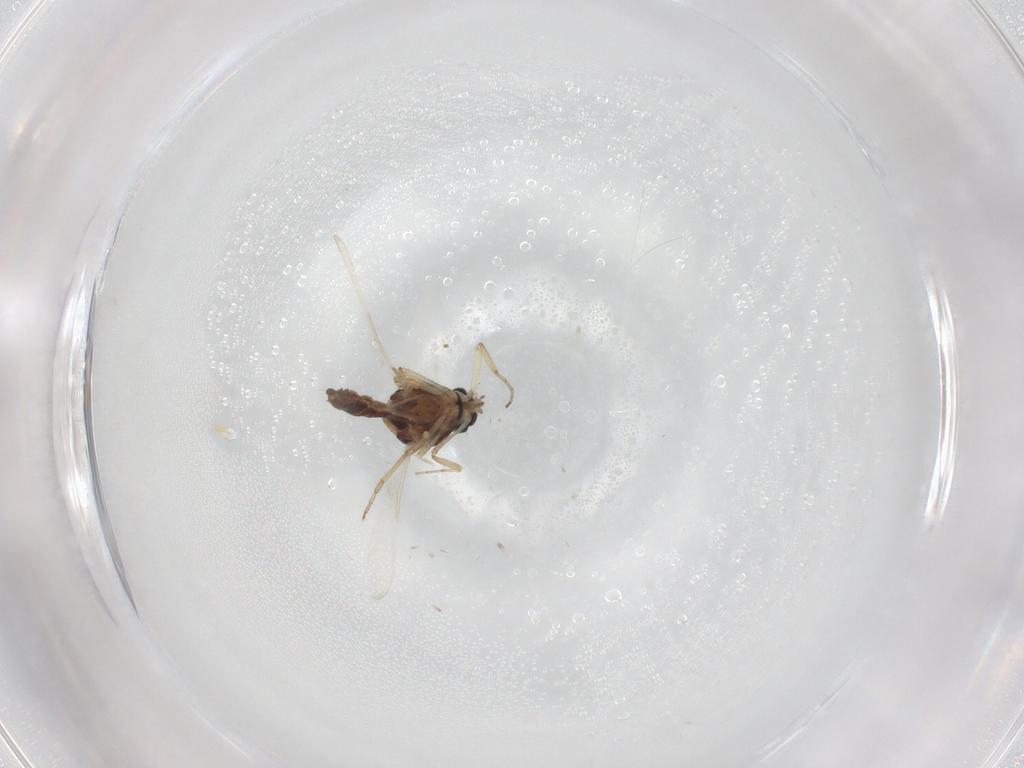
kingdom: Animalia
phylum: Arthropoda
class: Insecta
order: Diptera
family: Ceratopogonidae
